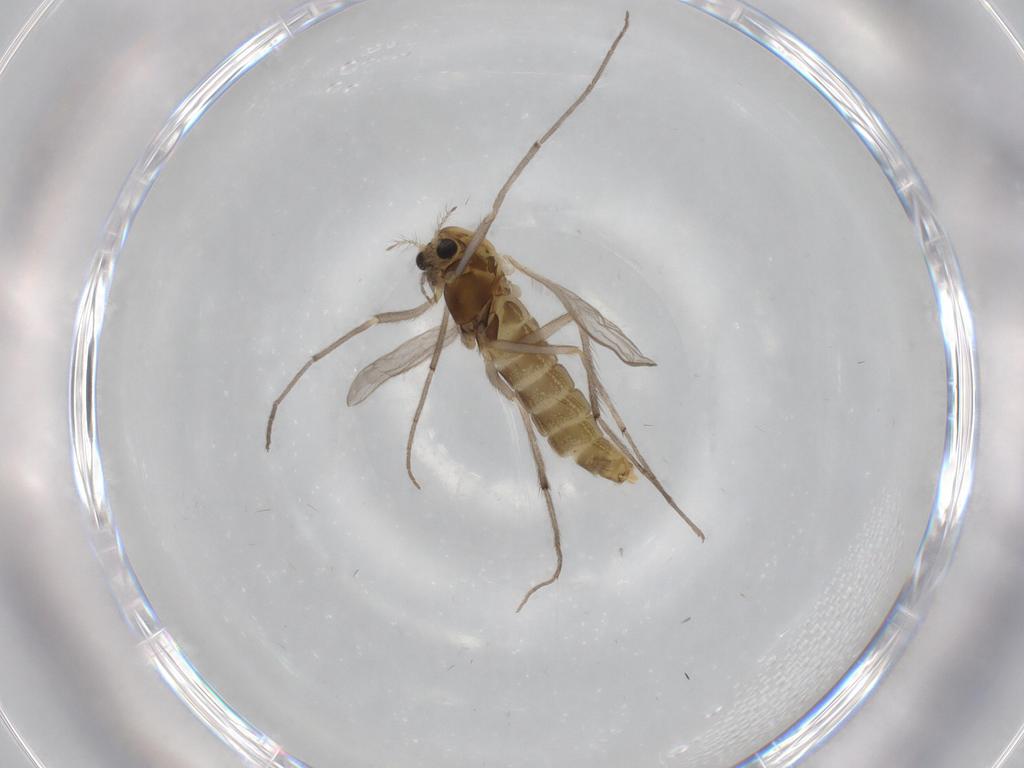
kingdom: Animalia
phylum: Arthropoda
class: Insecta
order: Diptera
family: Chironomidae
